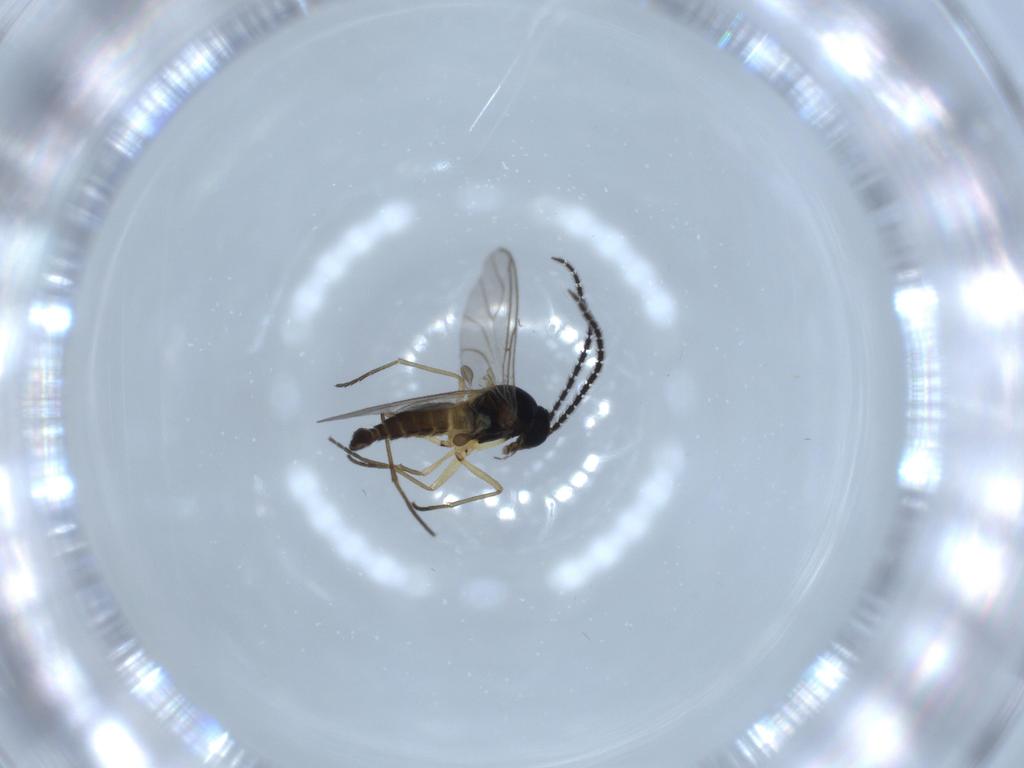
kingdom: Animalia
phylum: Arthropoda
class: Insecta
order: Diptera
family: Sciaridae
